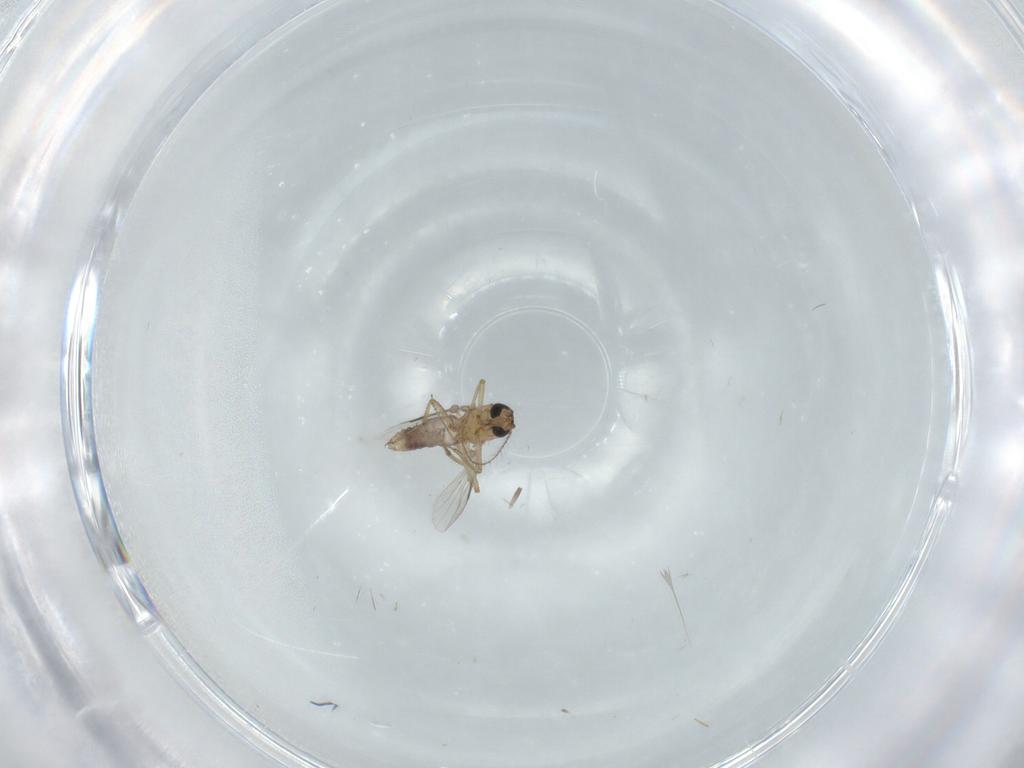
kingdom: Animalia
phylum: Arthropoda
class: Insecta
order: Diptera
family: Ceratopogonidae
